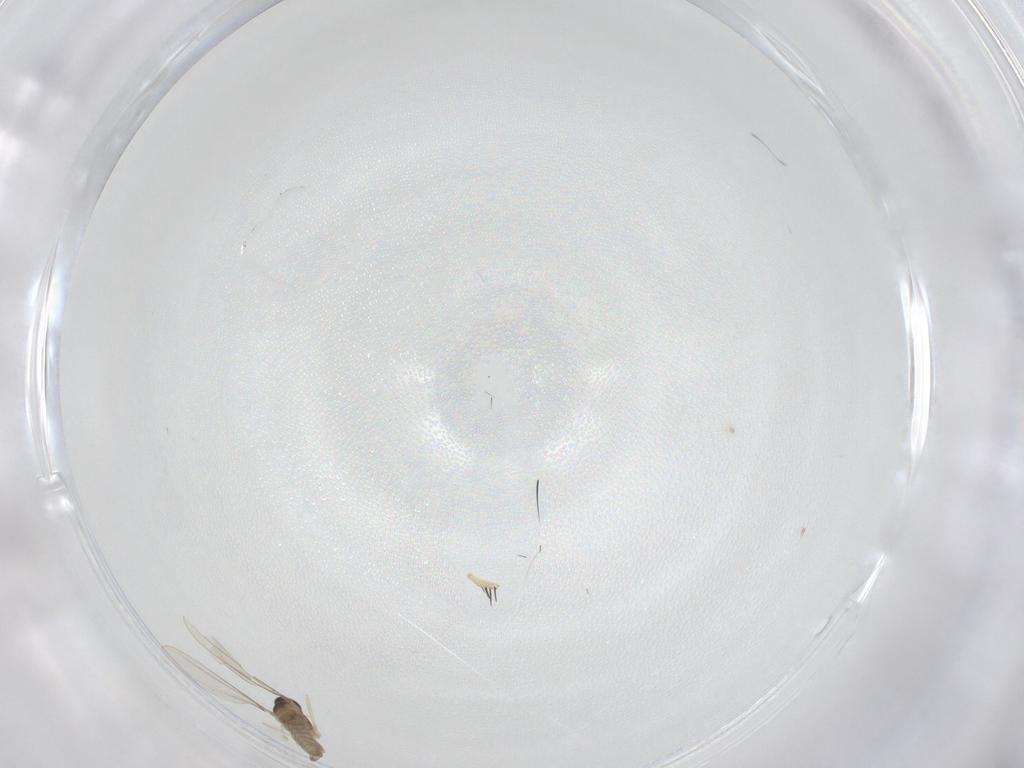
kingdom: Animalia
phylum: Arthropoda
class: Insecta
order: Diptera
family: Cecidomyiidae
